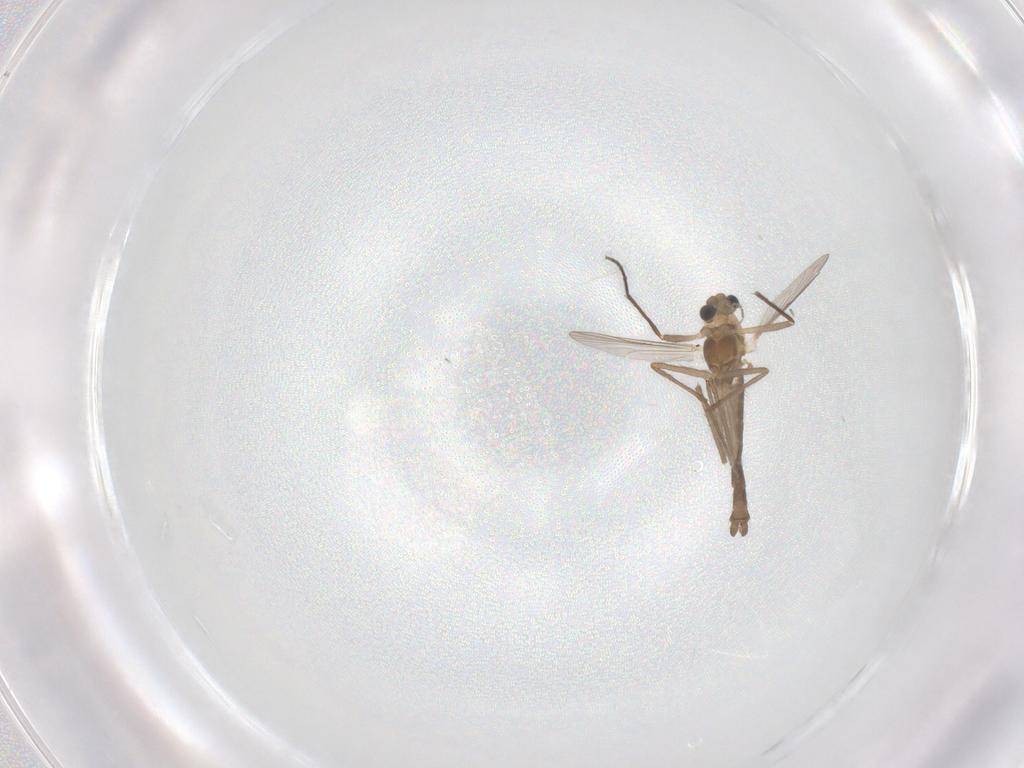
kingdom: Animalia
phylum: Arthropoda
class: Insecta
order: Diptera
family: Chironomidae
